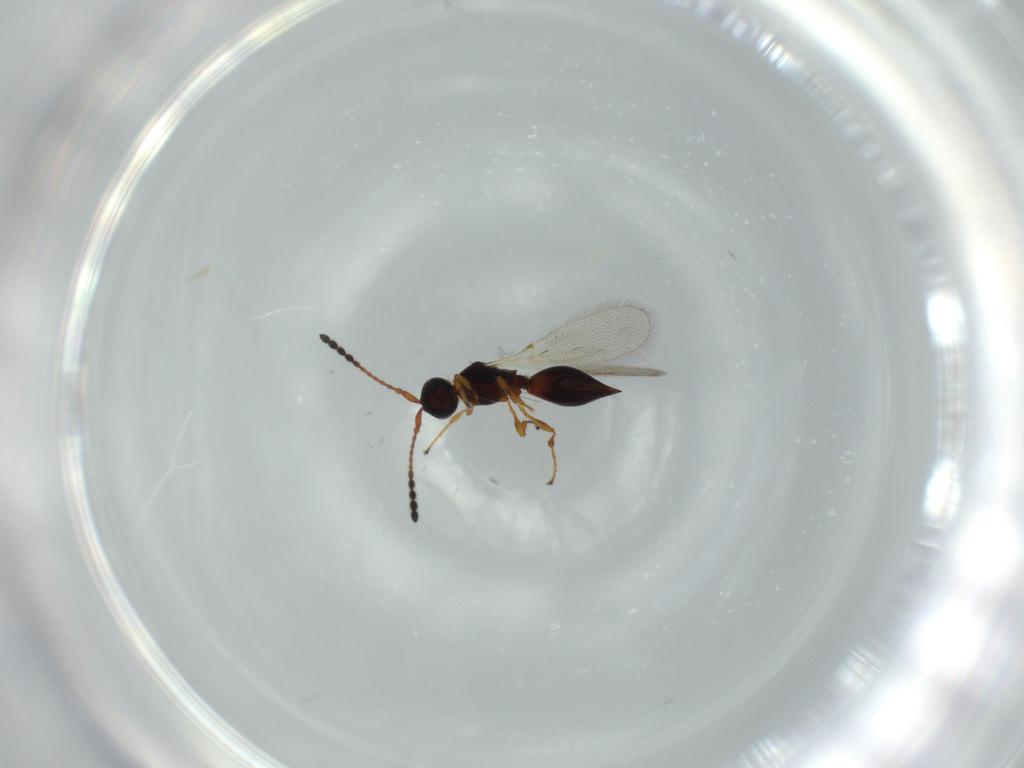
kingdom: Animalia
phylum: Arthropoda
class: Insecta
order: Hymenoptera
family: Diapriidae
